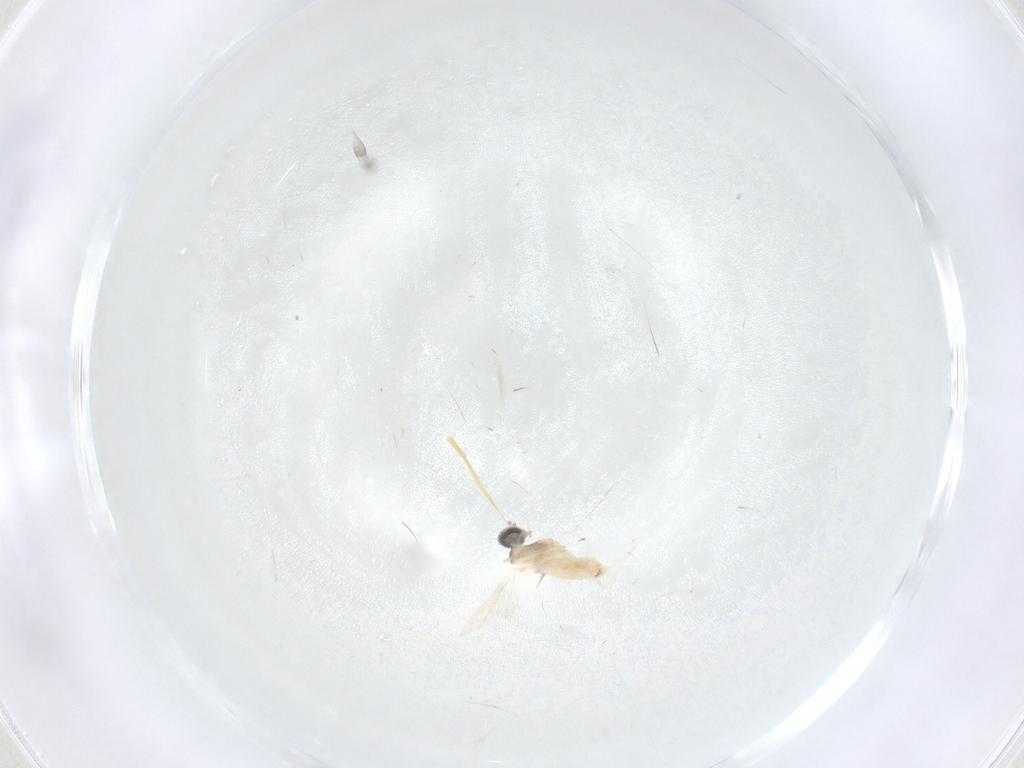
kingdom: Animalia
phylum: Arthropoda
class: Insecta
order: Diptera
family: Cecidomyiidae
